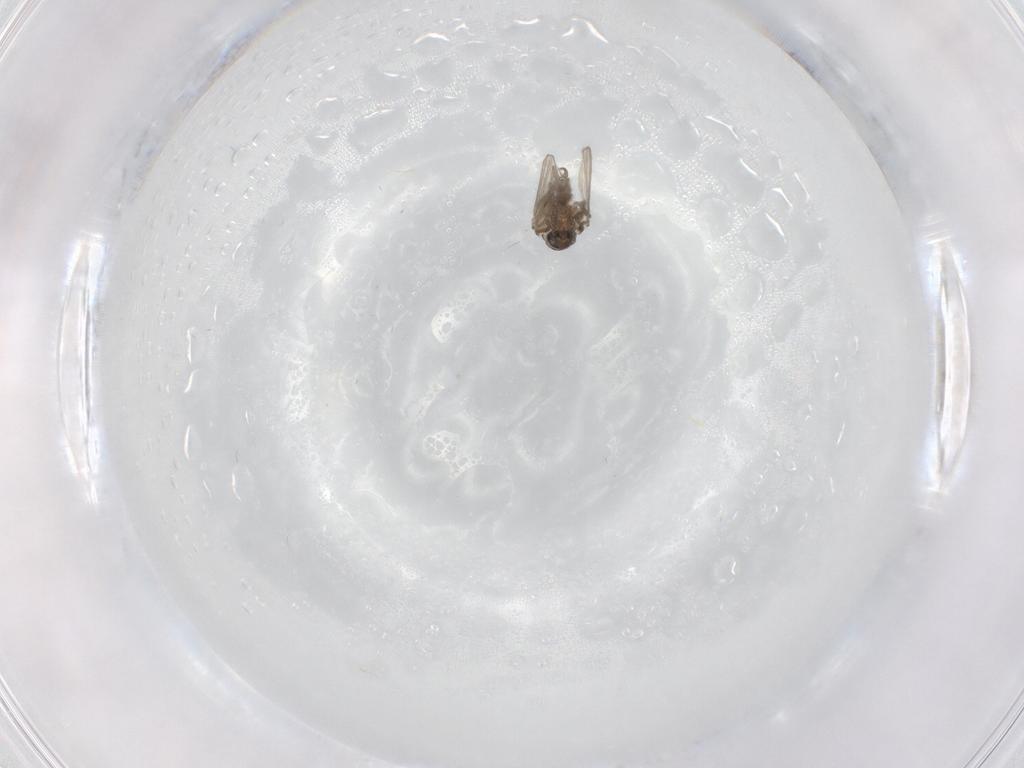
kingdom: Animalia
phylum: Arthropoda
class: Insecta
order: Diptera
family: Psychodidae
